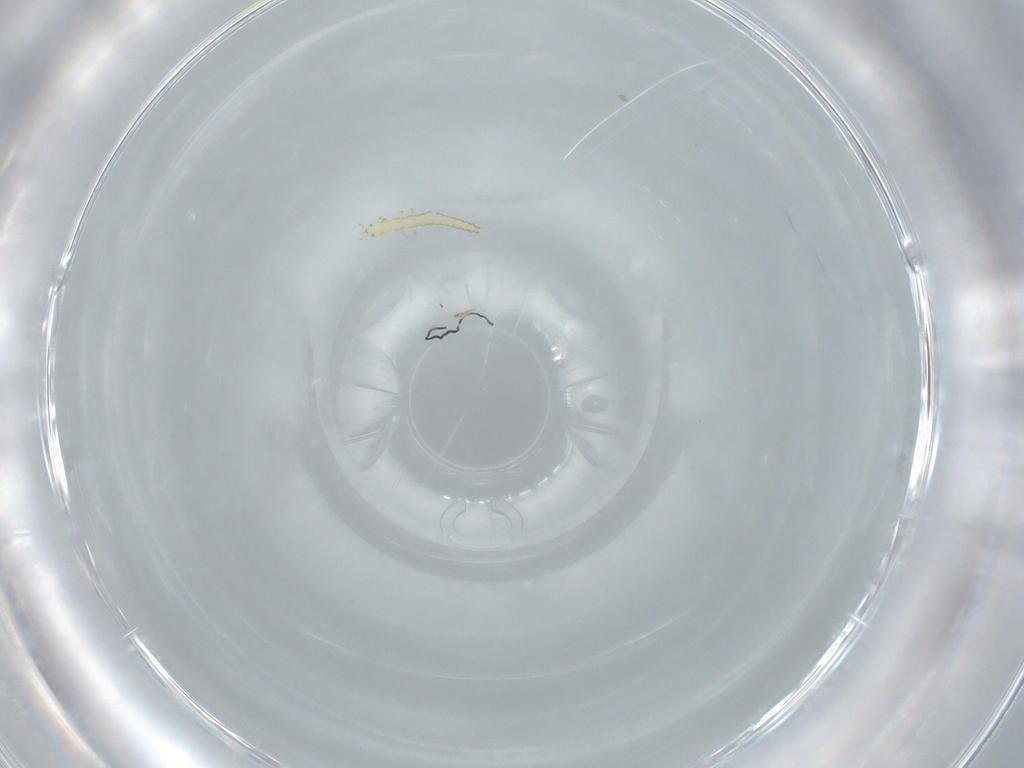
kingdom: Animalia
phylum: Arthropoda
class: Insecta
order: Neuroptera
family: Mantispidae
